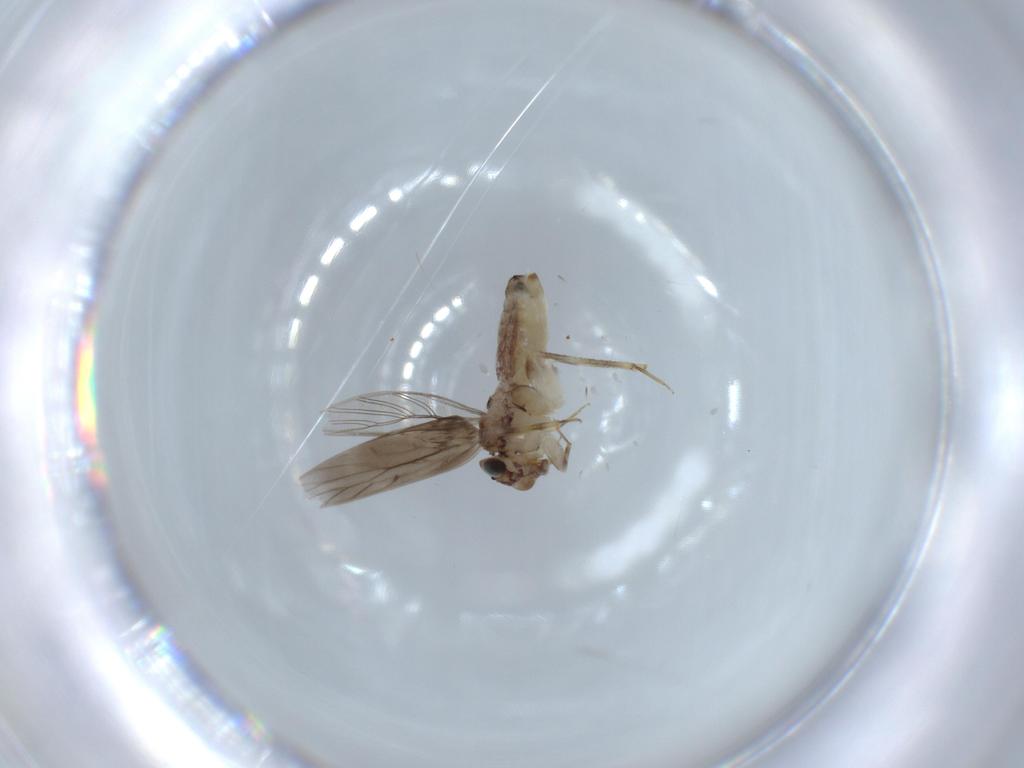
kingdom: Animalia
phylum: Arthropoda
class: Insecta
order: Psocodea
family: Lepidopsocidae
